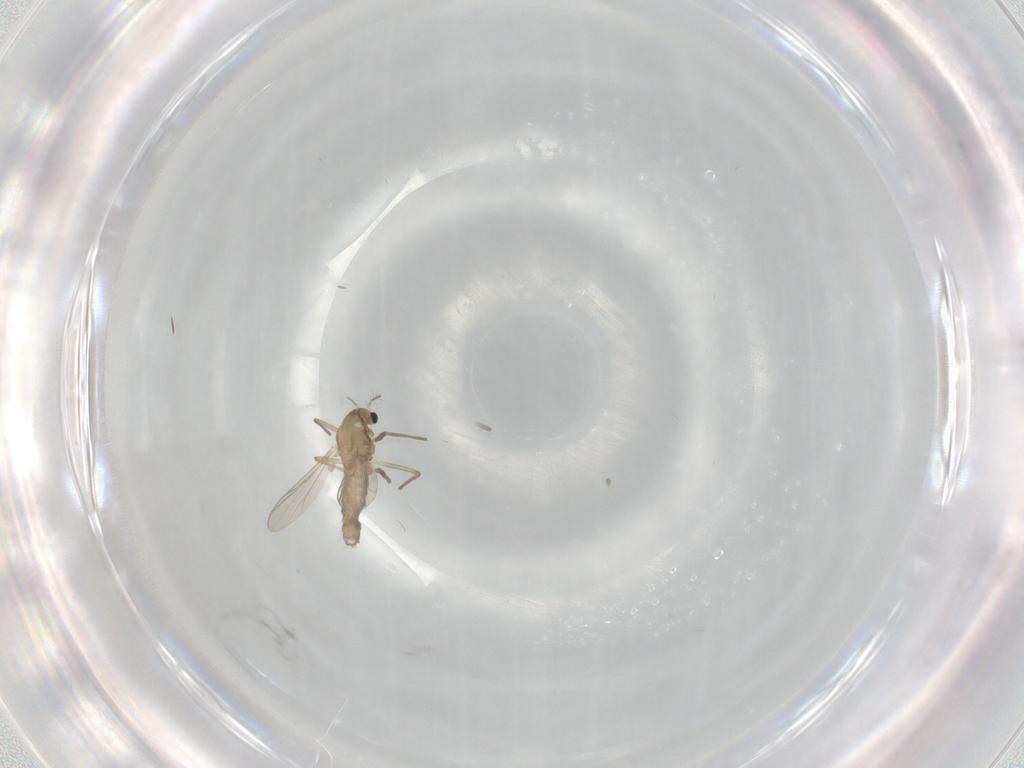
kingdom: Animalia
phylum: Arthropoda
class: Insecta
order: Diptera
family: Chironomidae
